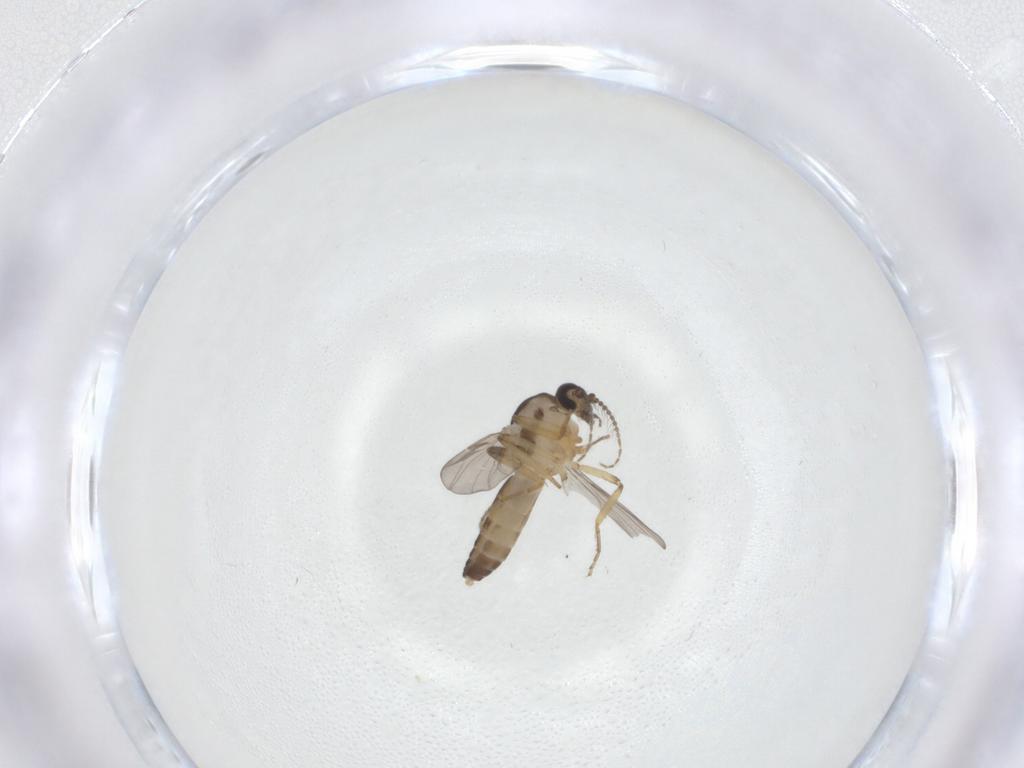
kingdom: Animalia
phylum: Arthropoda
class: Insecta
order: Diptera
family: Ceratopogonidae
